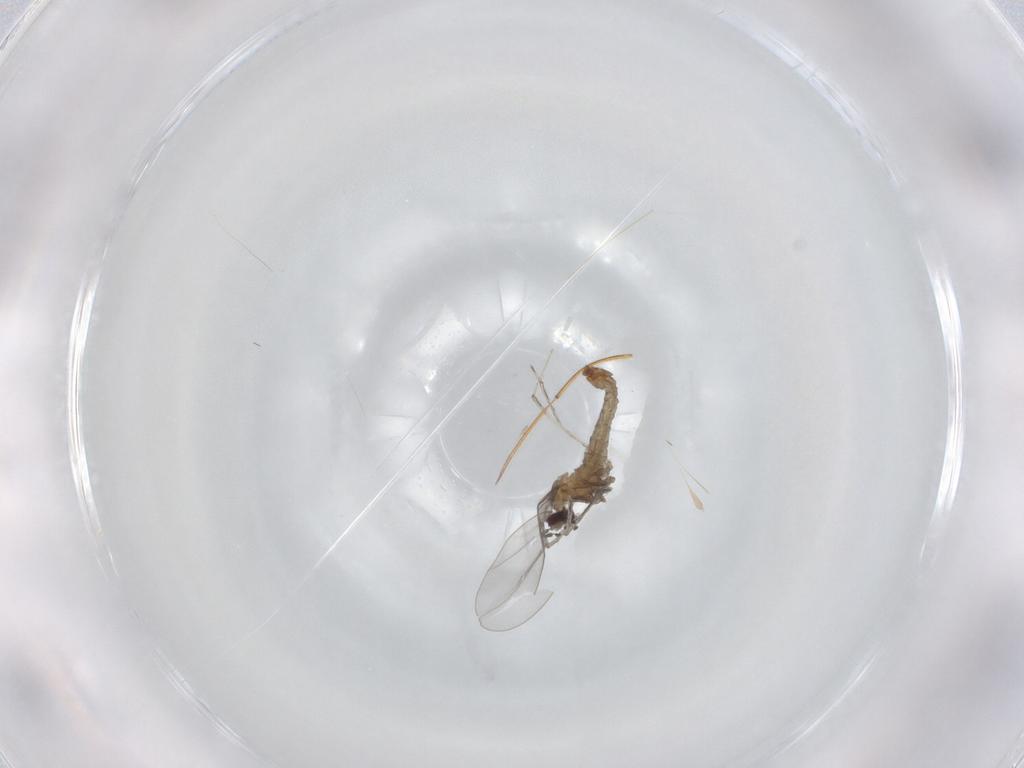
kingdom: Animalia
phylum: Arthropoda
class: Insecta
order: Diptera
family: Cecidomyiidae
